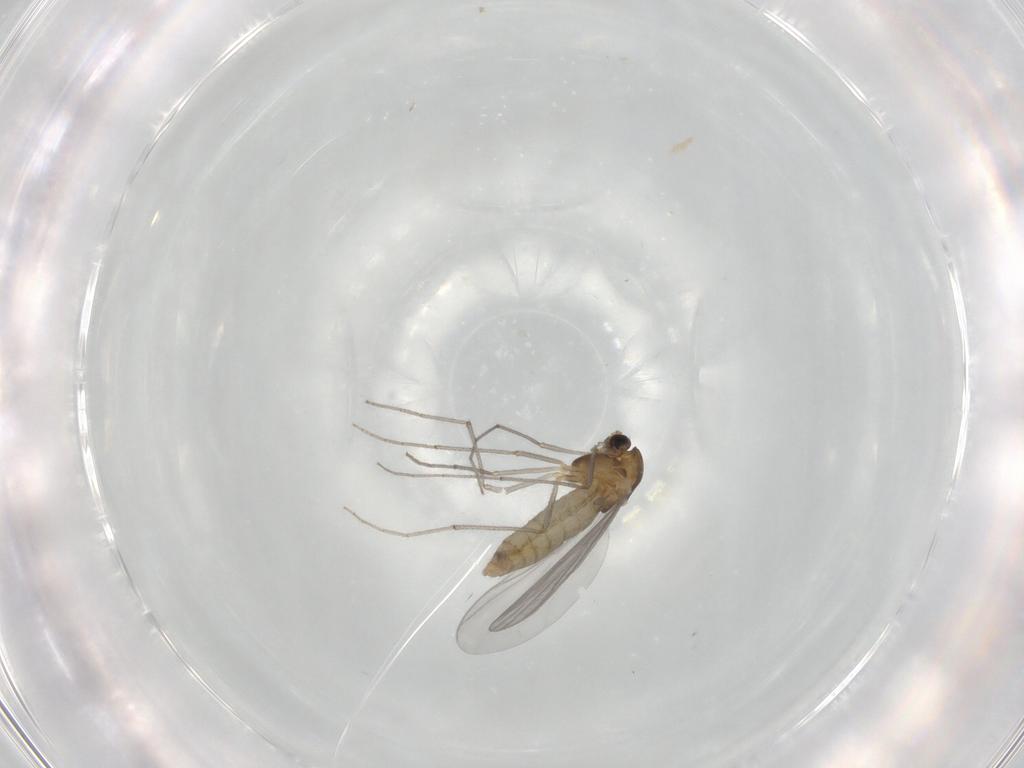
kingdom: Animalia
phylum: Arthropoda
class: Insecta
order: Diptera
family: Chironomidae
